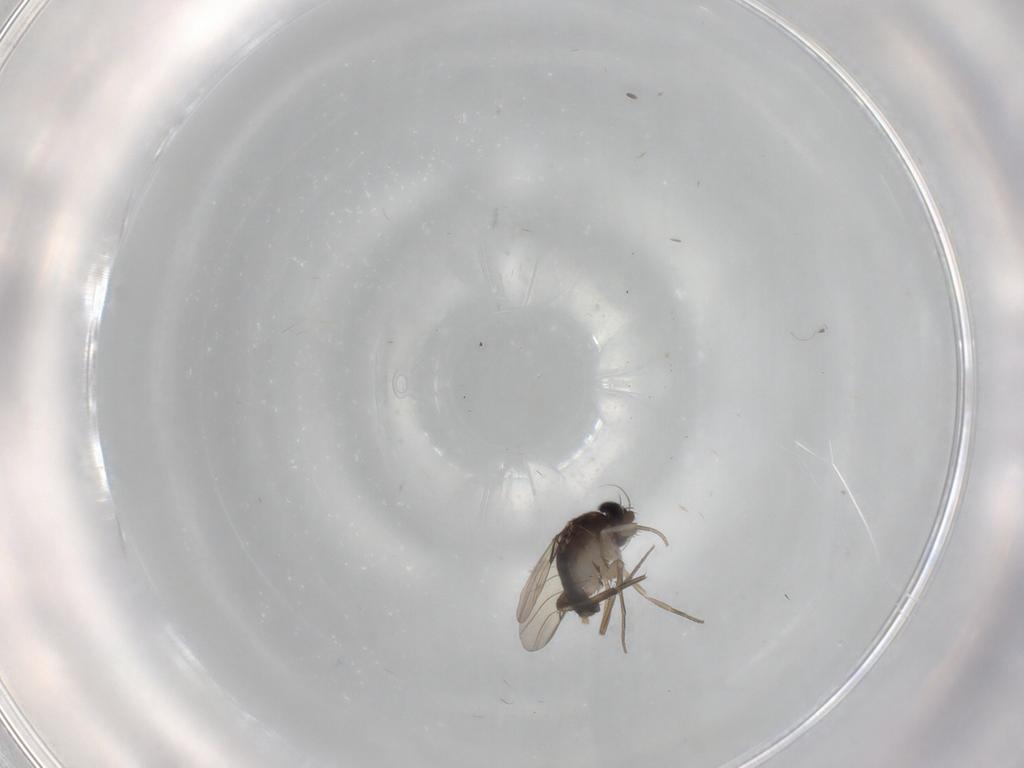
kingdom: Animalia
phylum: Arthropoda
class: Insecta
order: Diptera
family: Phoridae
